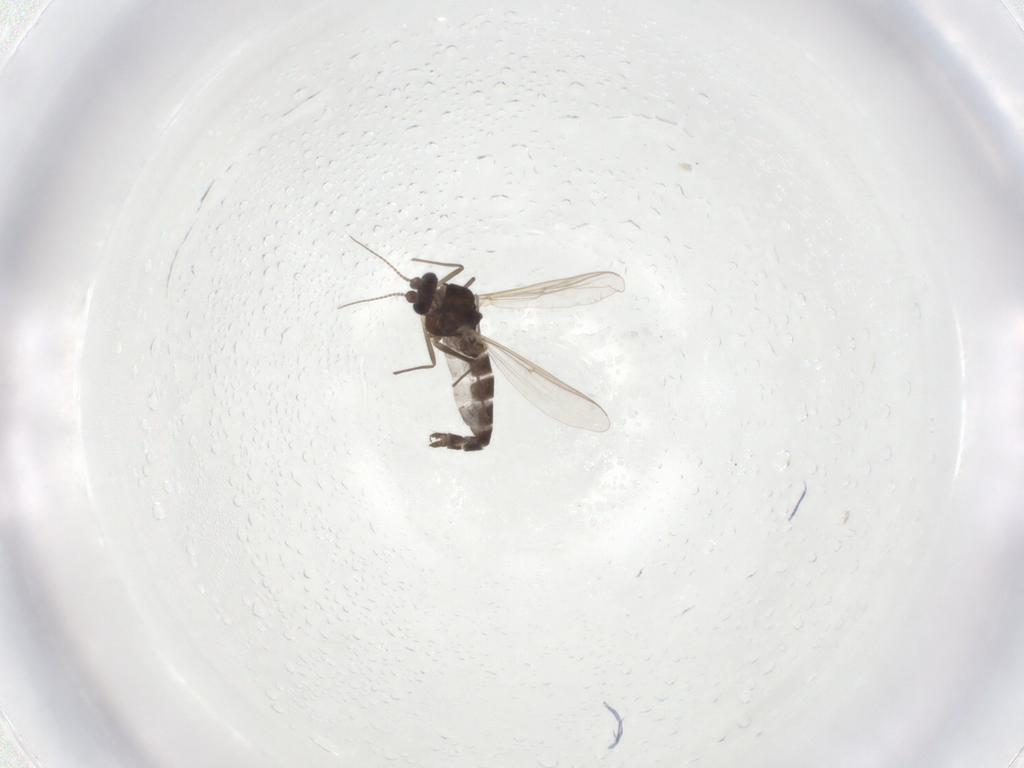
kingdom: Animalia
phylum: Arthropoda
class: Insecta
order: Diptera
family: Chironomidae
